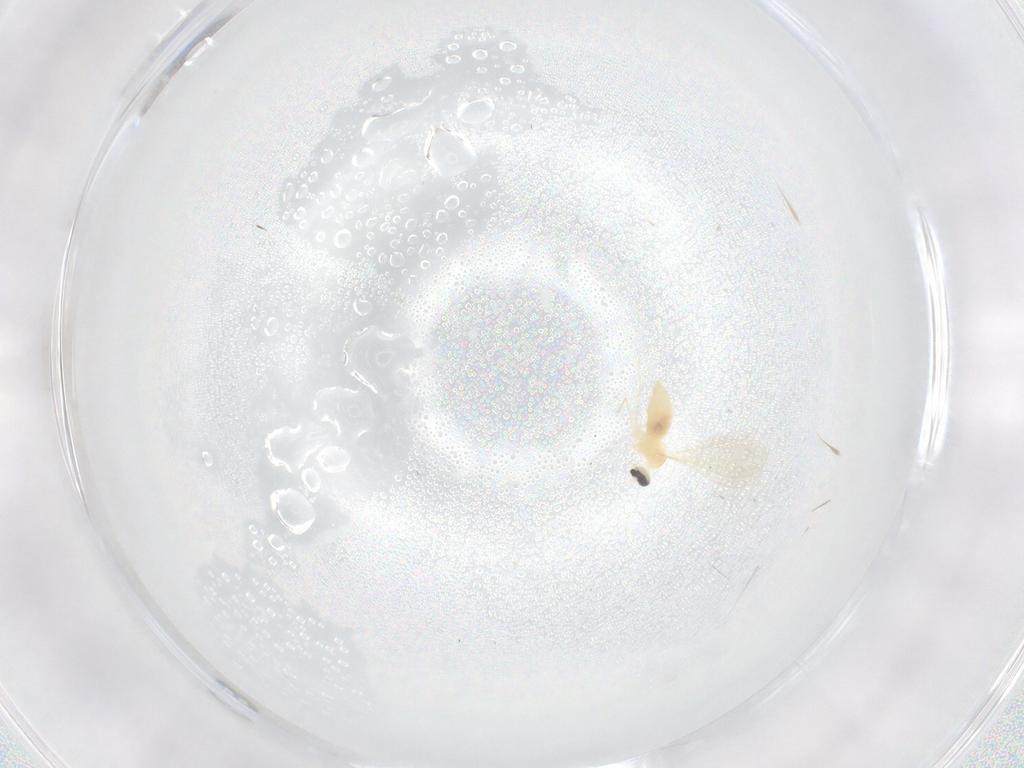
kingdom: Animalia
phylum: Arthropoda
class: Insecta
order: Diptera
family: Cecidomyiidae
